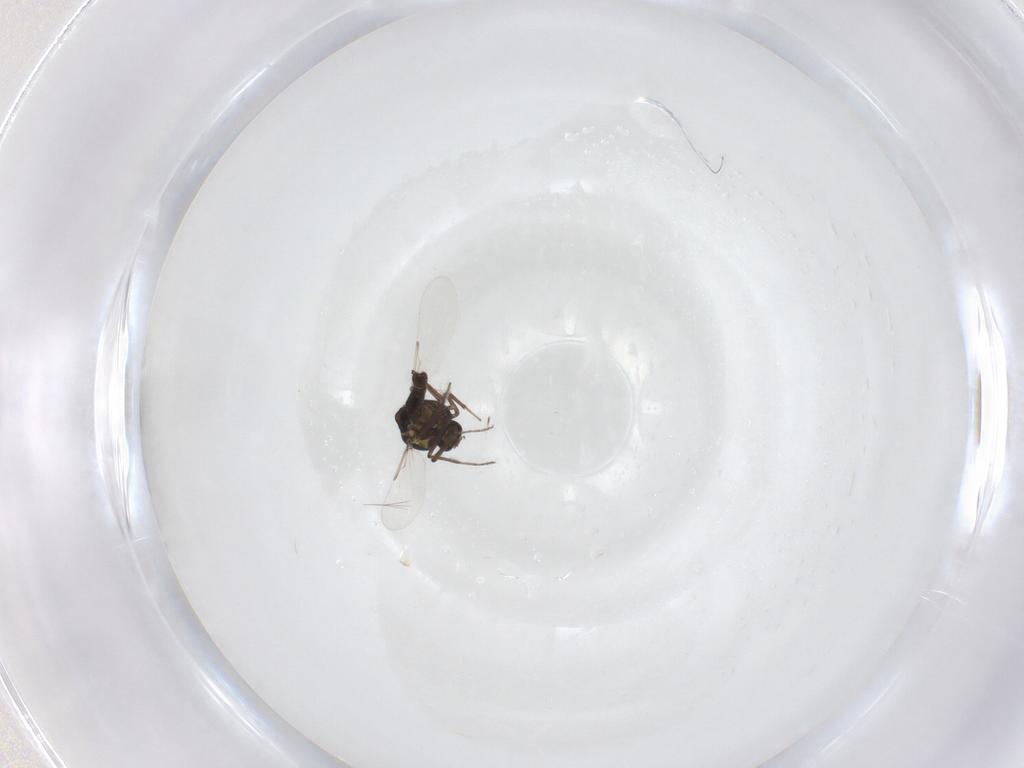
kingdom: Animalia
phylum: Arthropoda
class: Insecta
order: Diptera
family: Ceratopogonidae
